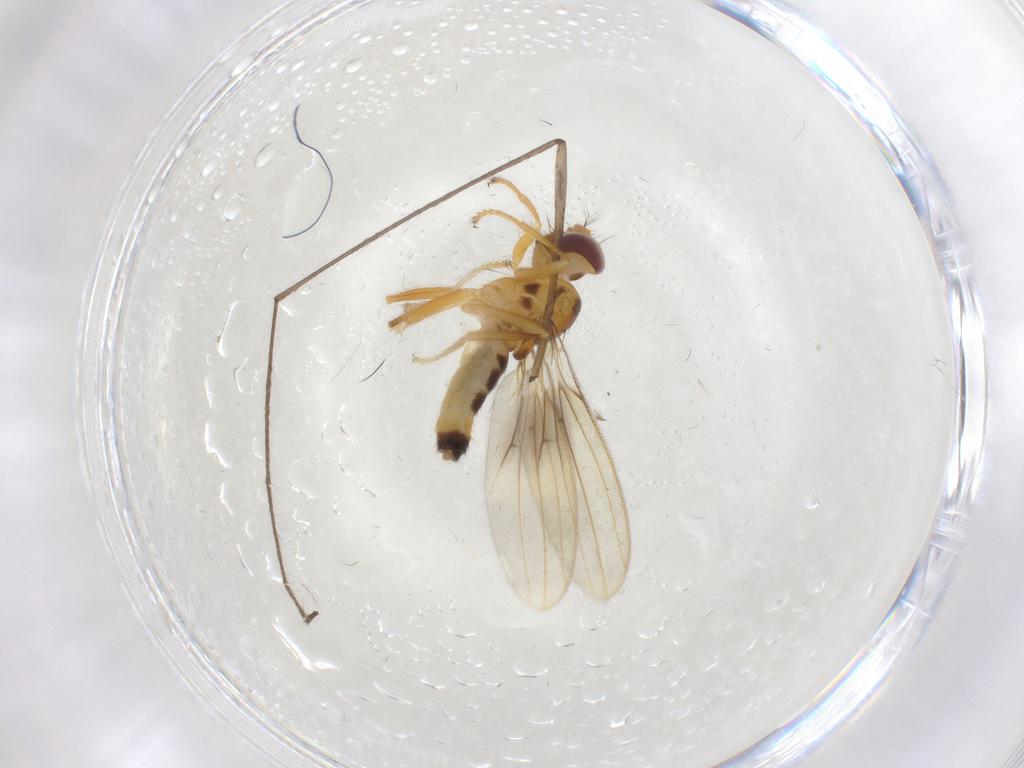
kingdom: Animalia
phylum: Arthropoda
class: Insecta
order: Diptera
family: Periscelididae
